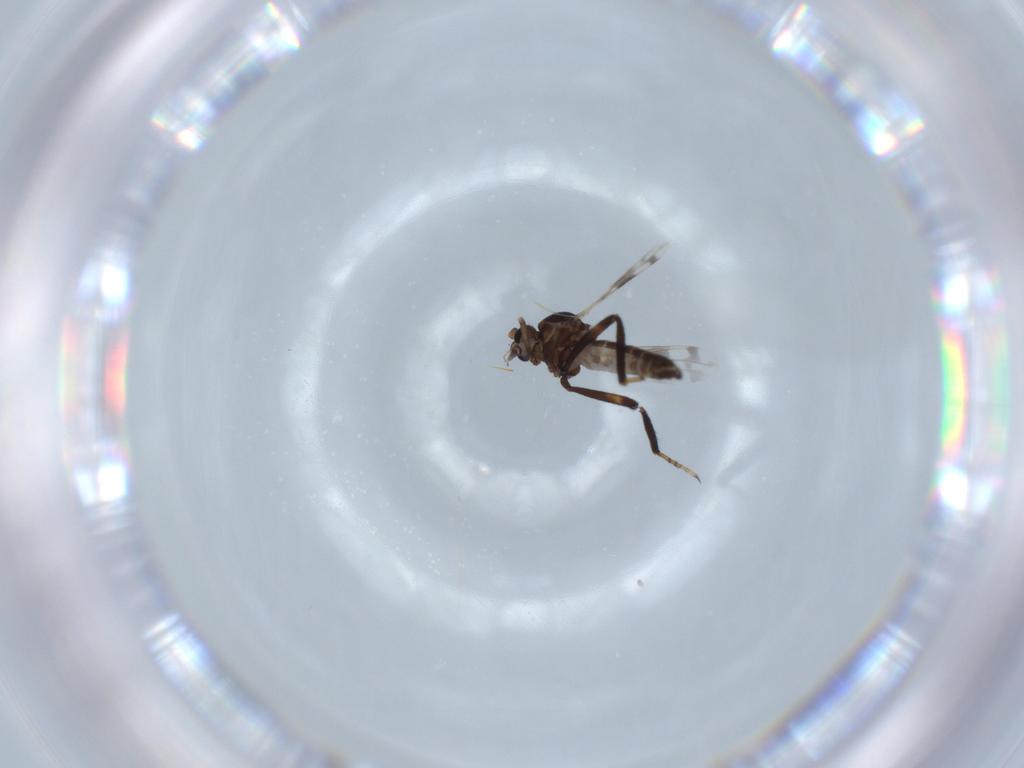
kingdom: Animalia
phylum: Arthropoda
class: Insecta
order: Diptera
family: Ceratopogonidae
